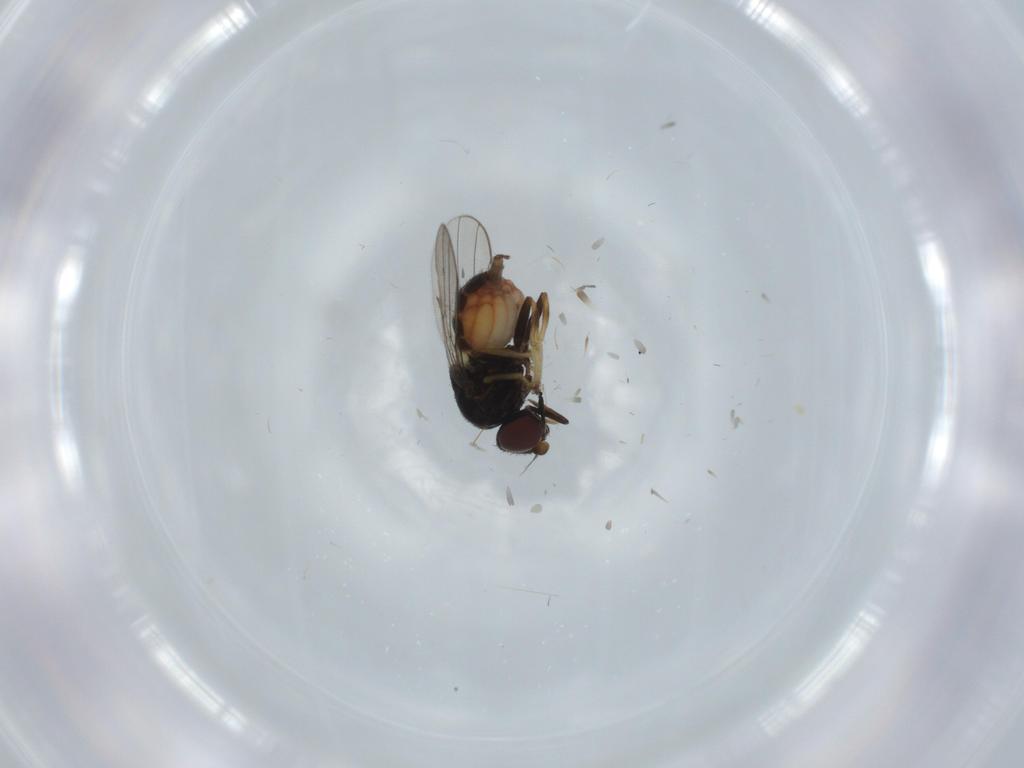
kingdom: Animalia
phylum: Arthropoda
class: Insecta
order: Diptera
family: Chloropidae
